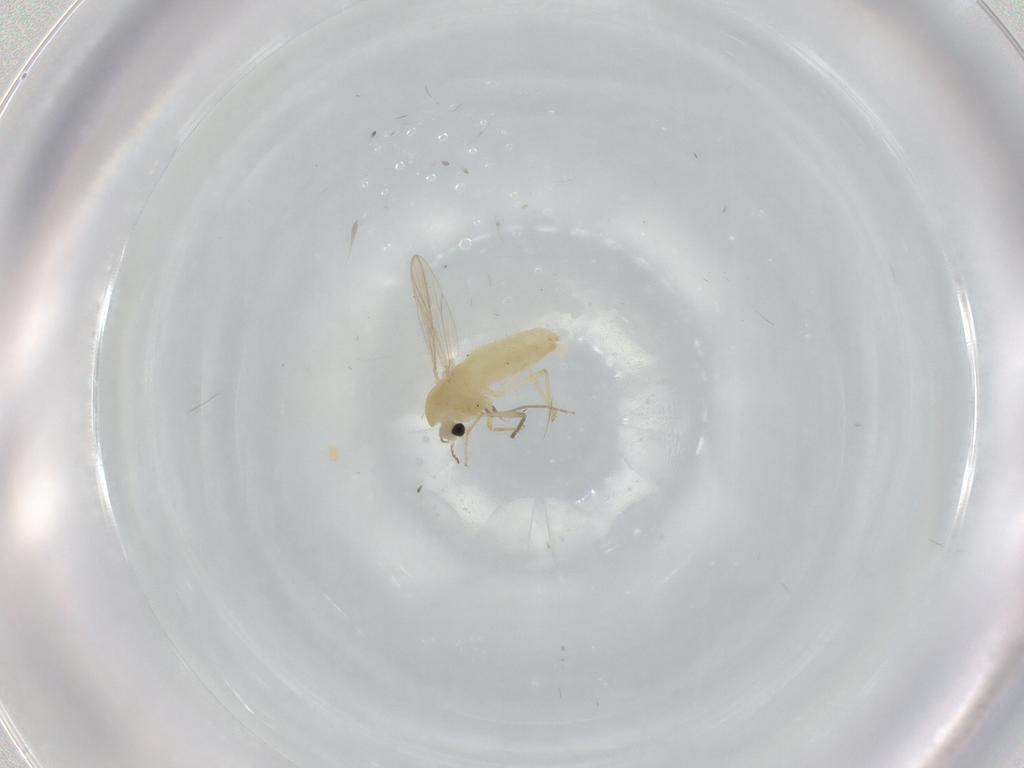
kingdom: Animalia
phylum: Arthropoda
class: Insecta
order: Diptera
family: Chironomidae
